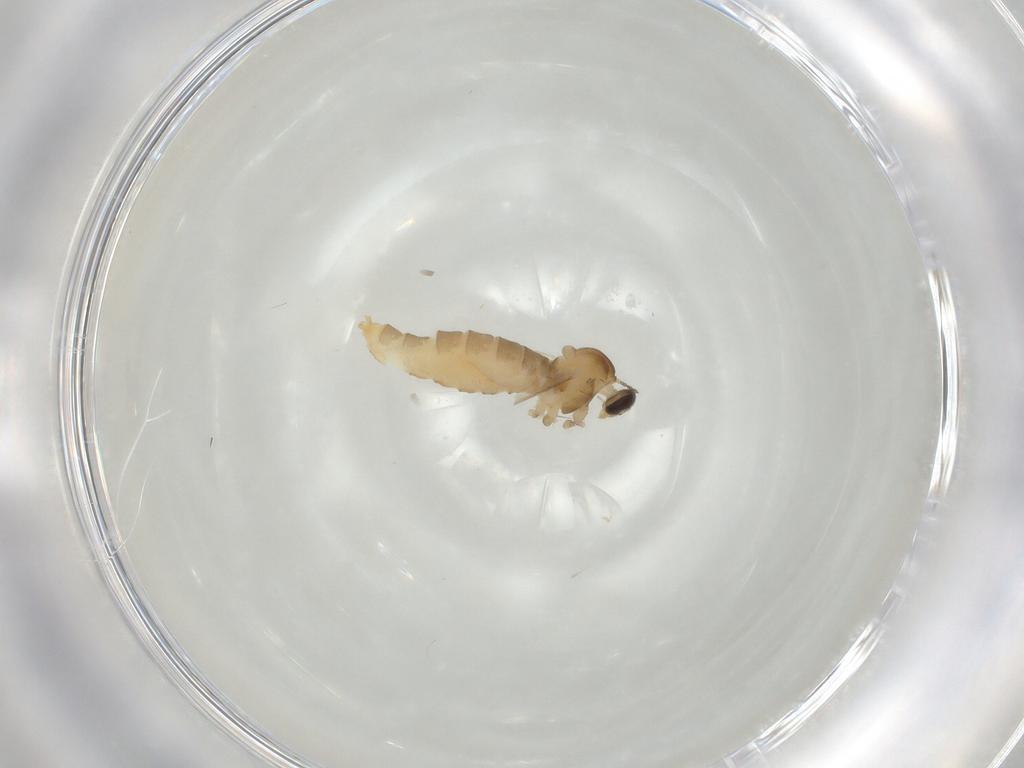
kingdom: Animalia
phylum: Arthropoda
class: Insecta
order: Diptera
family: Cecidomyiidae
